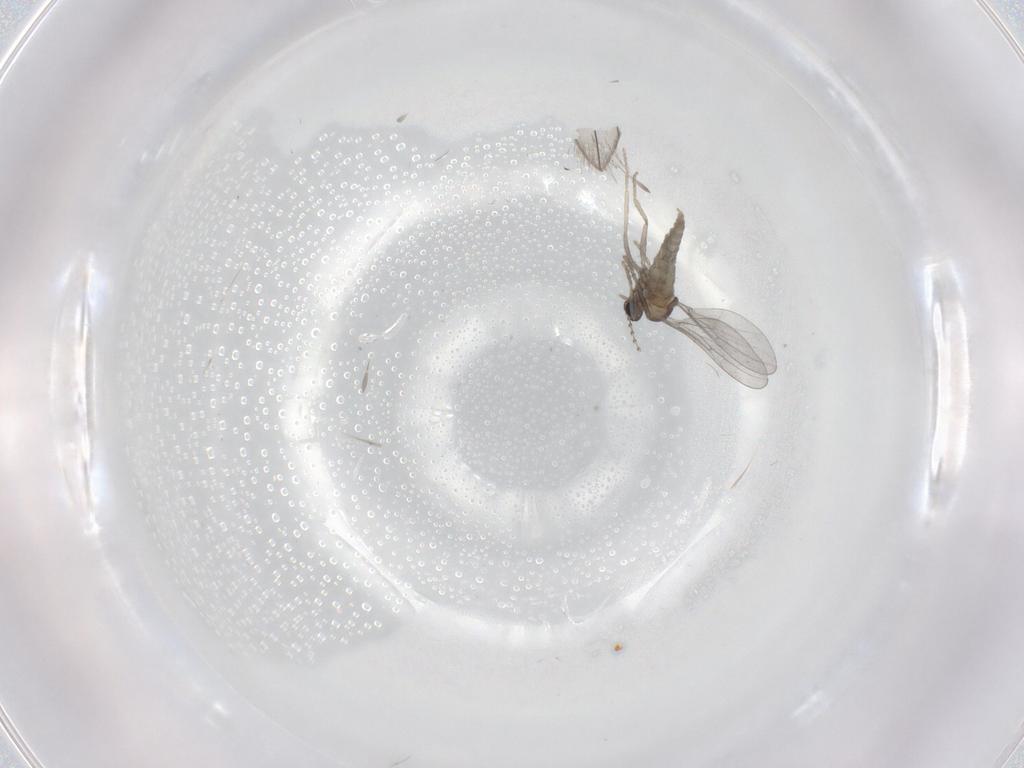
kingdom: Animalia
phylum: Arthropoda
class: Insecta
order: Diptera
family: Cecidomyiidae
